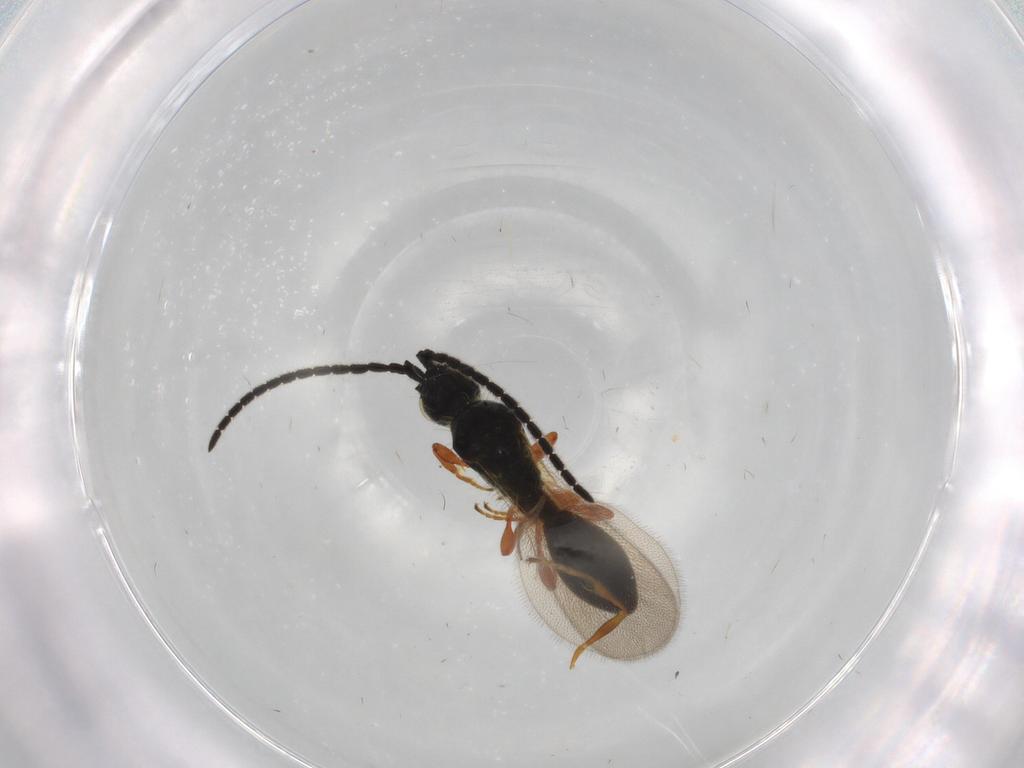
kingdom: Animalia
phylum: Arthropoda
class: Insecta
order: Hymenoptera
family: Diapriidae
